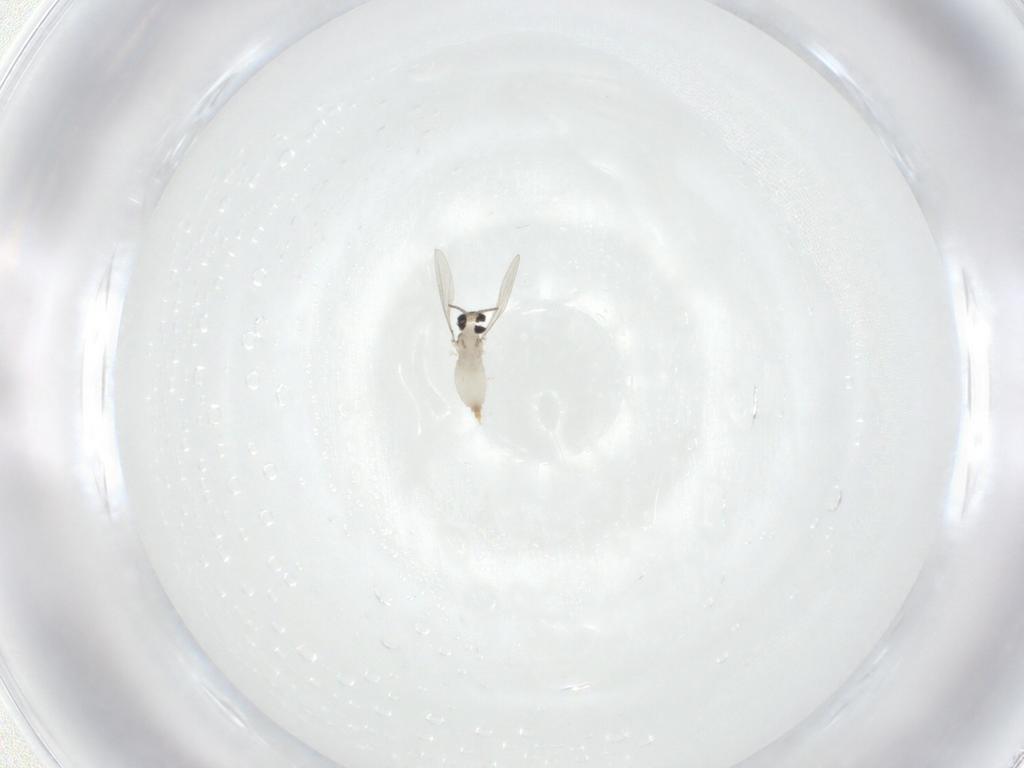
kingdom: Animalia
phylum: Arthropoda
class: Insecta
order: Diptera
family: Cecidomyiidae
